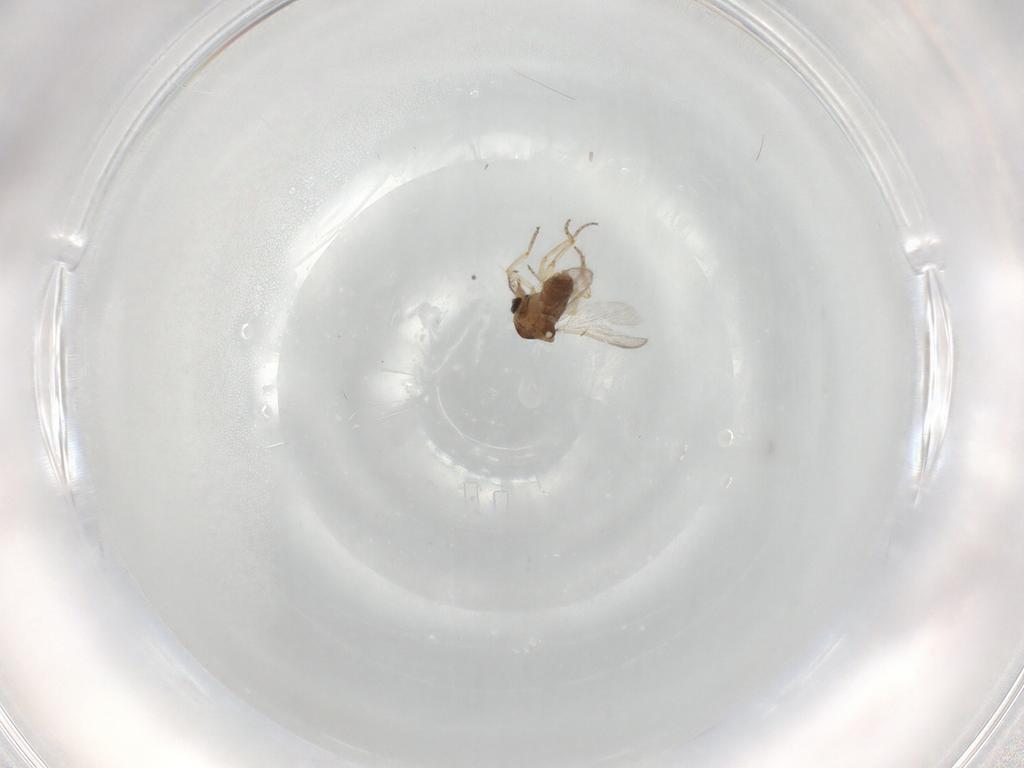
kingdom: Animalia
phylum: Arthropoda
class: Insecta
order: Diptera
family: Ceratopogonidae
